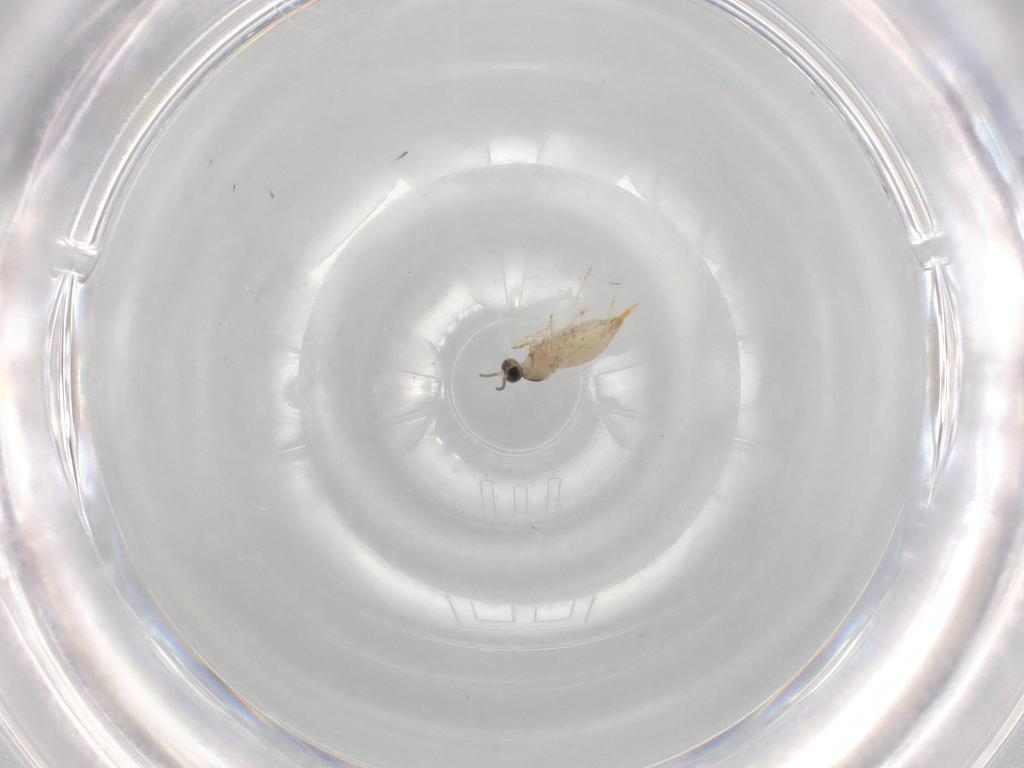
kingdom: Animalia
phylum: Arthropoda
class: Insecta
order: Diptera
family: Cecidomyiidae
